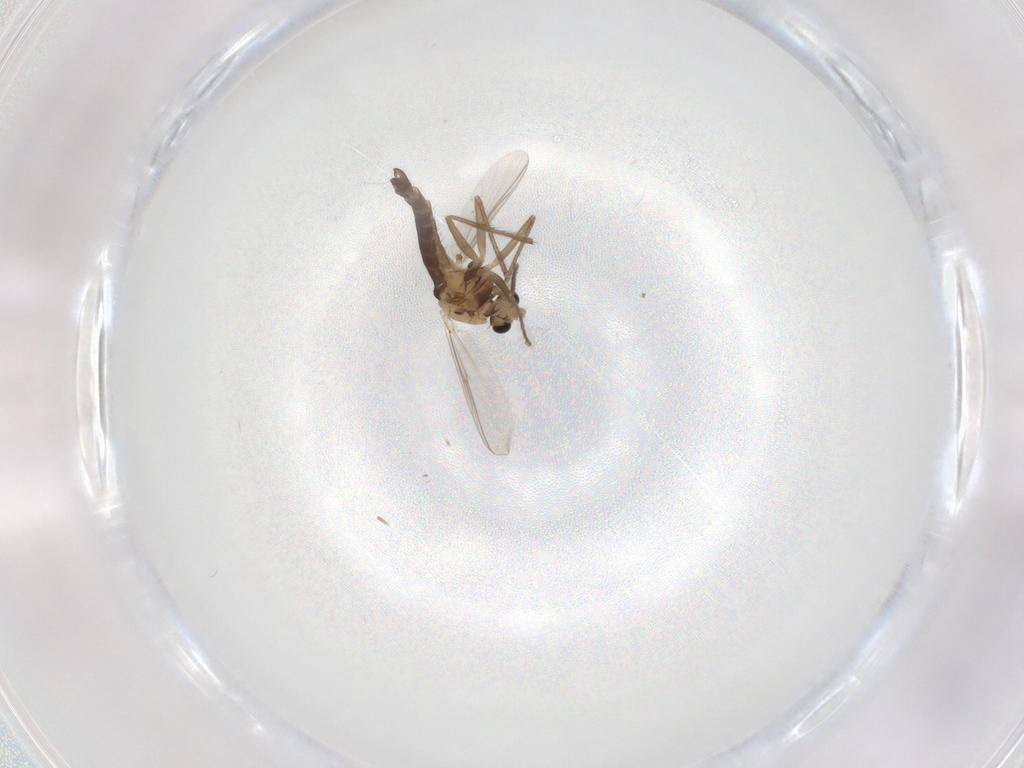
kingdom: Animalia
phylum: Arthropoda
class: Insecta
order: Diptera
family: Chironomidae
